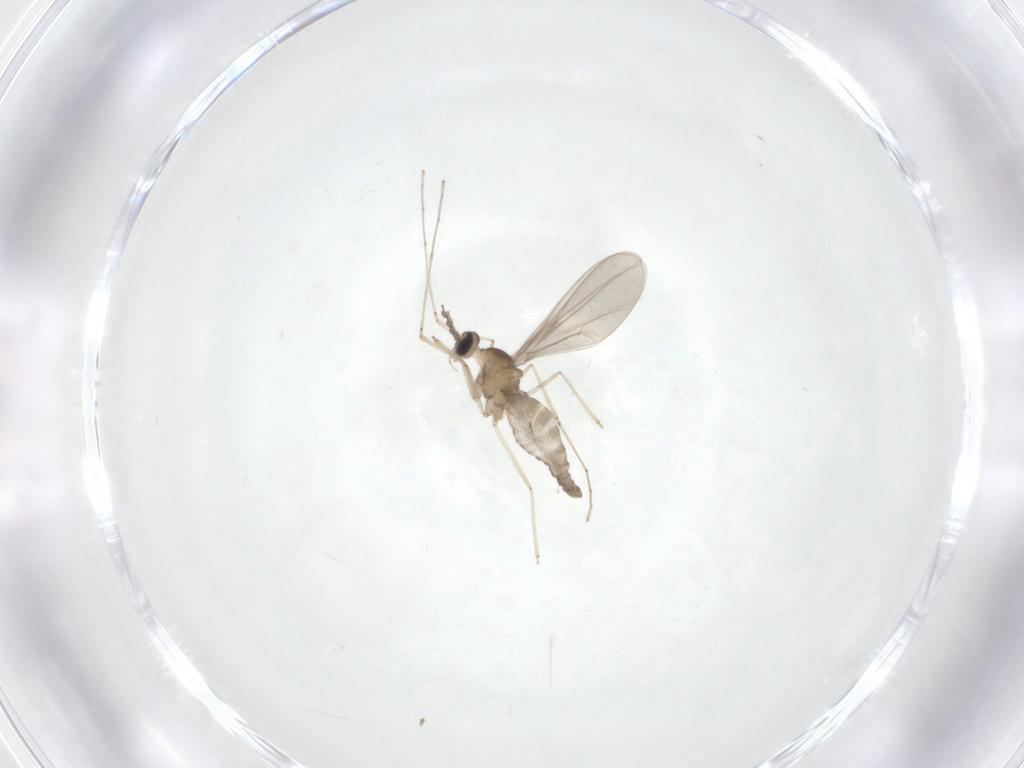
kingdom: Animalia
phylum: Arthropoda
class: Insecta
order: Diptera
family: Cecidomyiidae
